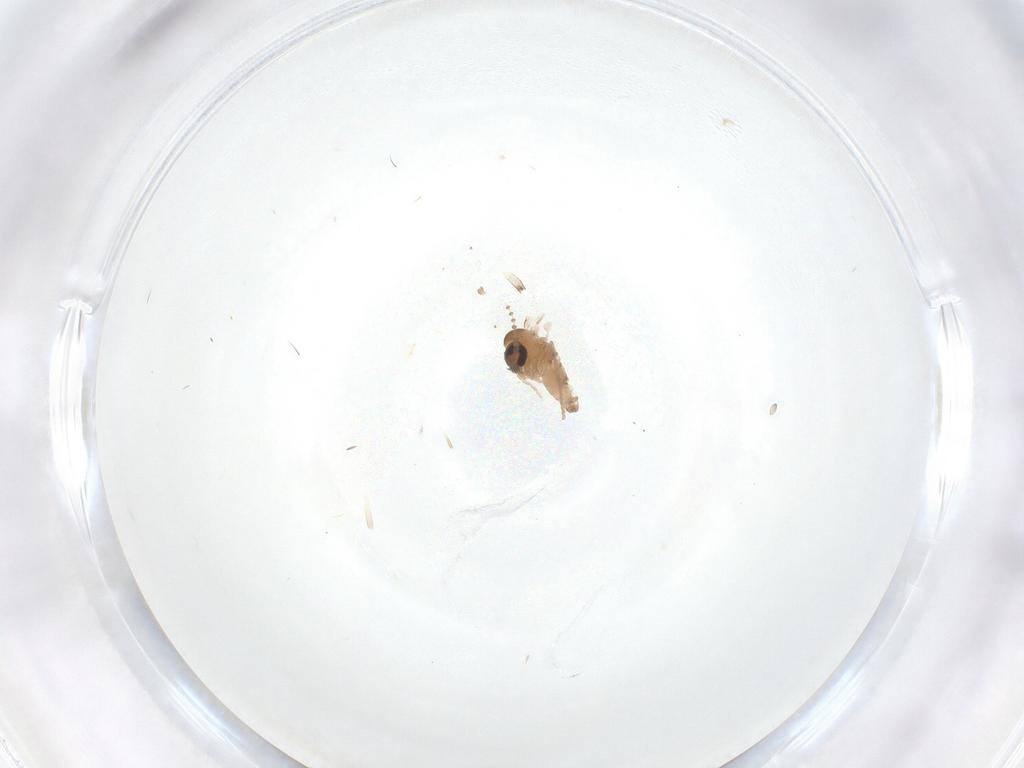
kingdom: Animalia
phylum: Arthropoda
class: Insecta
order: Diptera
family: Psychodidae
